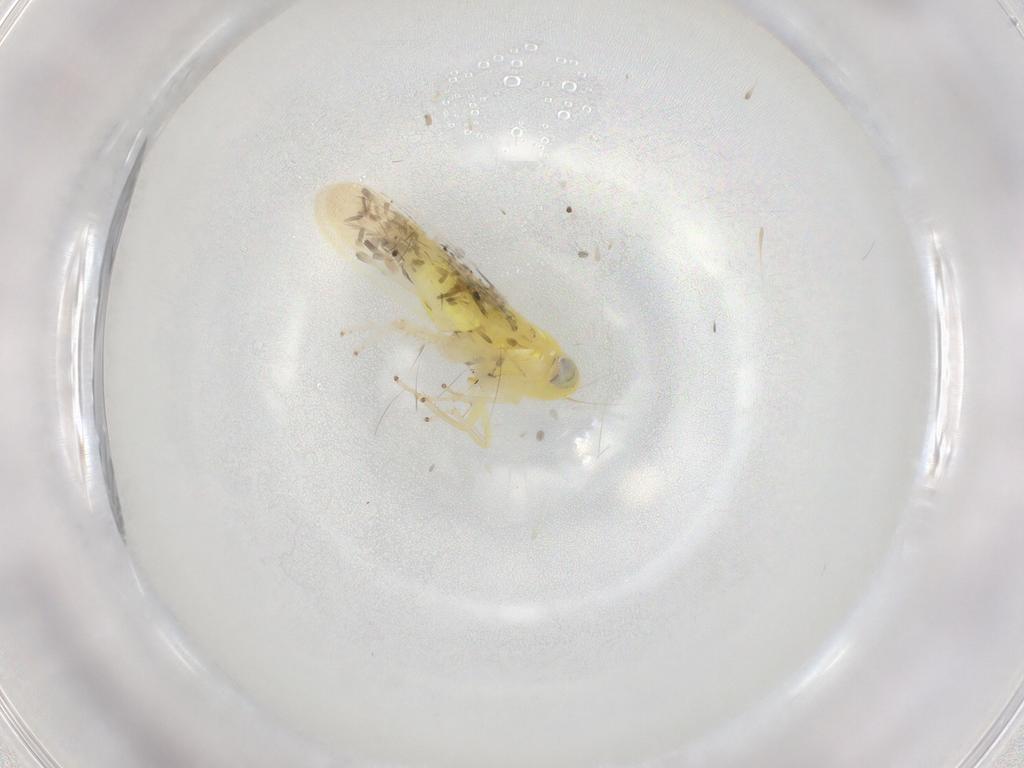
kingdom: Animalia
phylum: Arthropoda
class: Insecta
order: Hemiptera
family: Cicadellidae
